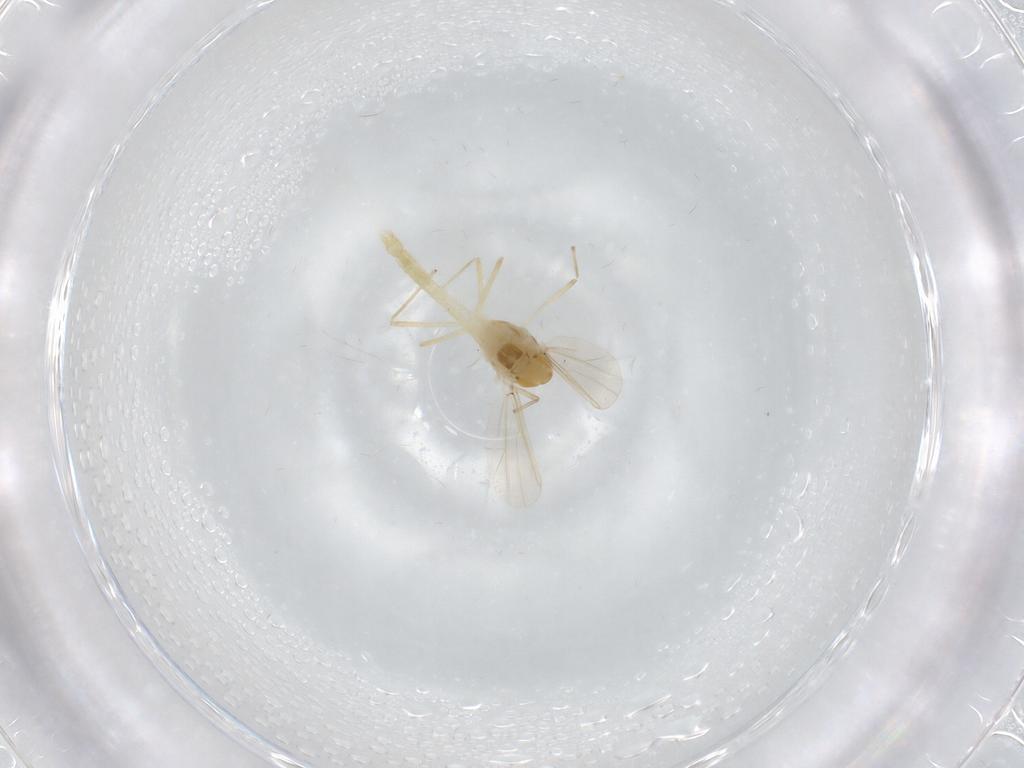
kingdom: Animalia
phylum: Arthropoda
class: Insecta
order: Diptera
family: Chironomidae
